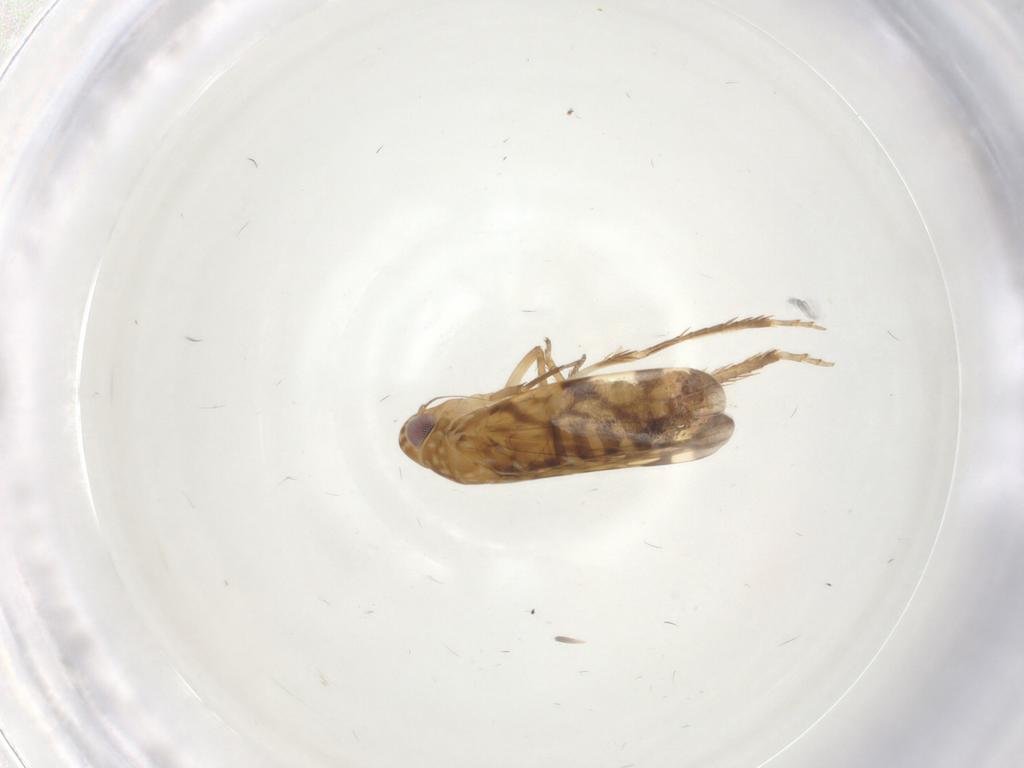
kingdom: Animalia
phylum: Arthropoda
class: Insecta
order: Hemiptera
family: Cicadellidae
